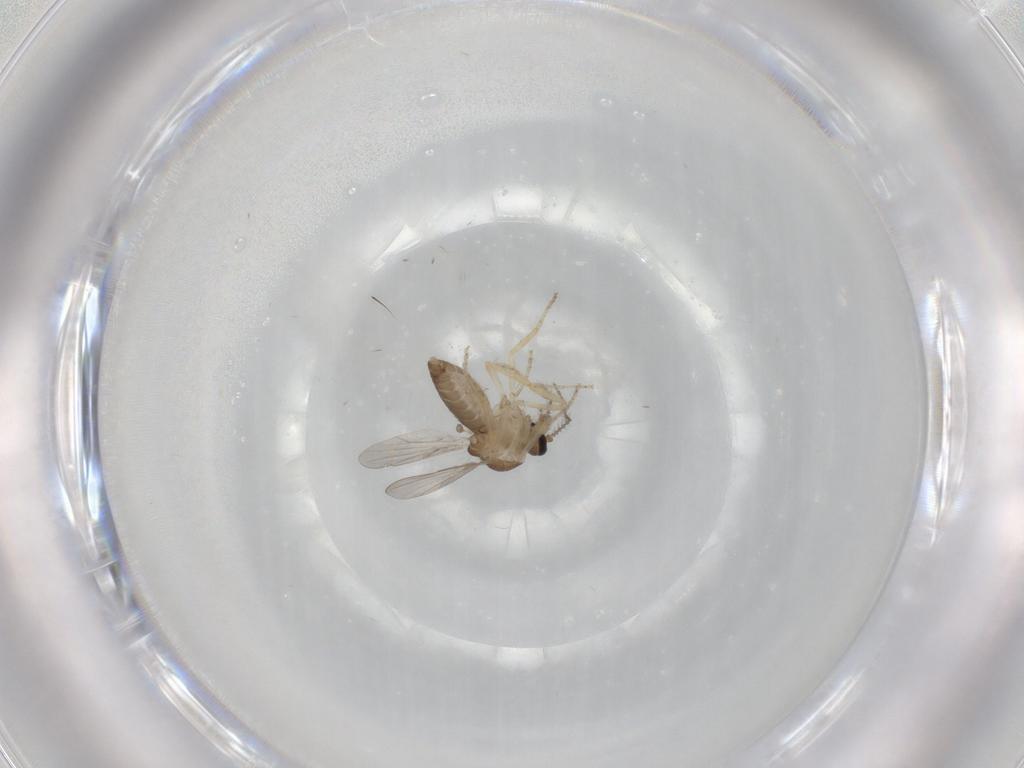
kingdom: Animalia
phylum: Arthropoda
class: Insecta
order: Diptera
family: Ceratopogonidae
